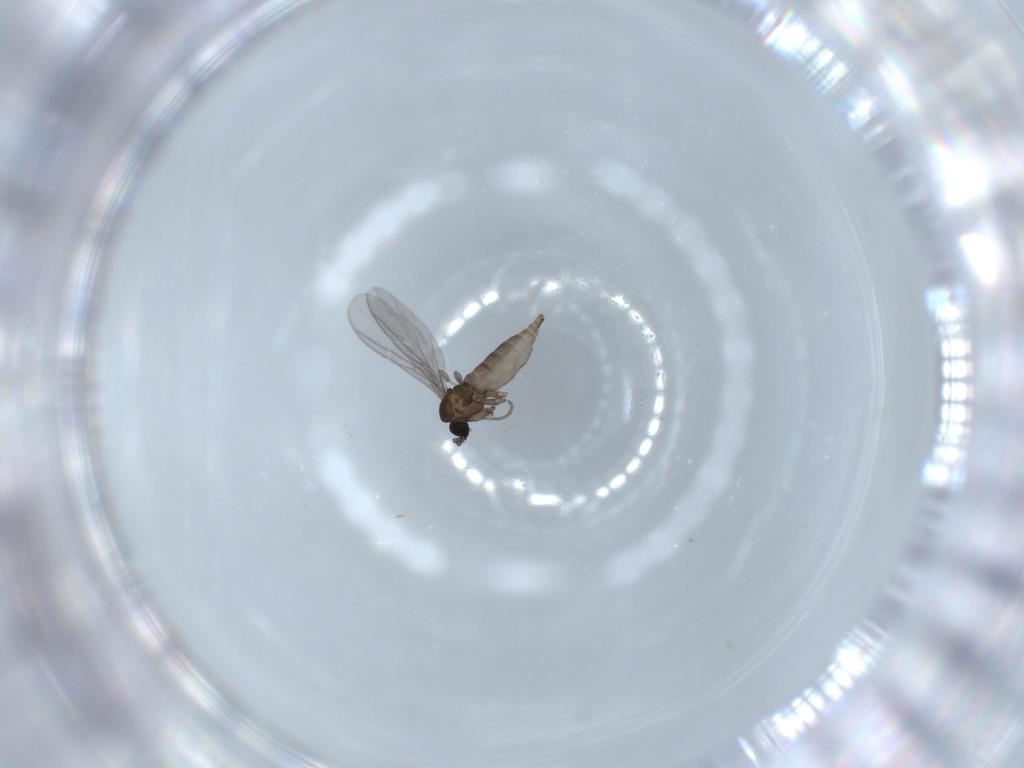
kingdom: Animalia
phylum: Arthropoda
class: Insecta
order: Diptera
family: Sciaridae
